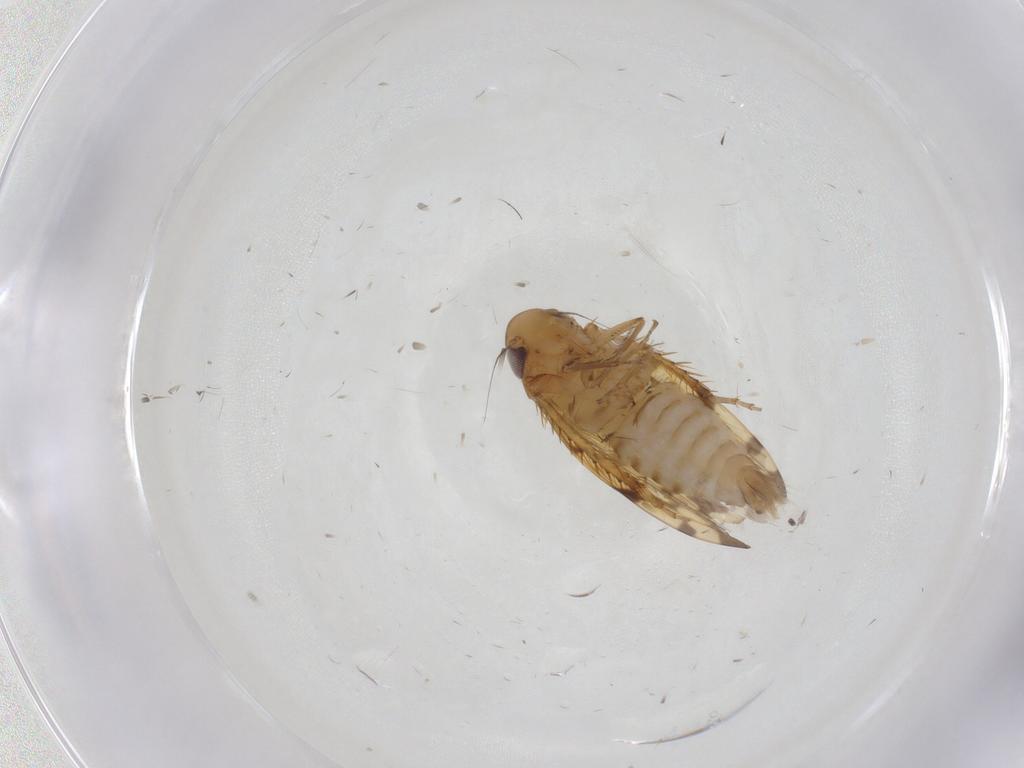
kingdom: Animalia
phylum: Arthropoda
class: Insecta
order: Hemiptera
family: Cicadellidae
